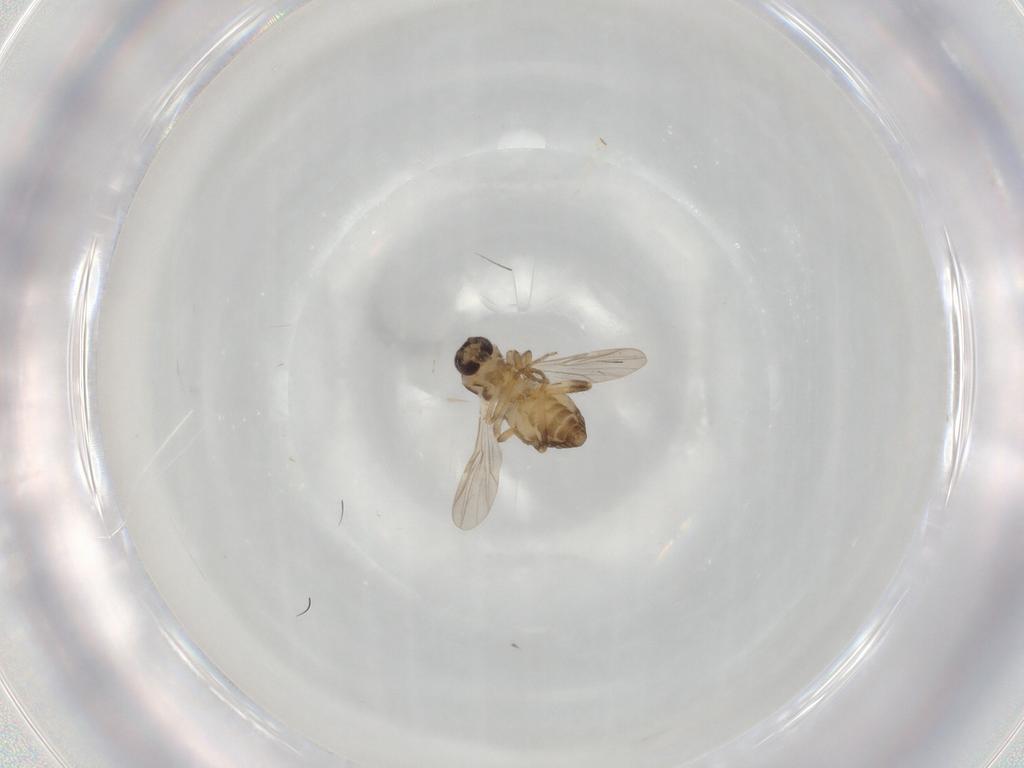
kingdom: Animalia
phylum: Arthropoda
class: Insecta
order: Diptera
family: Ceratopogonidae
